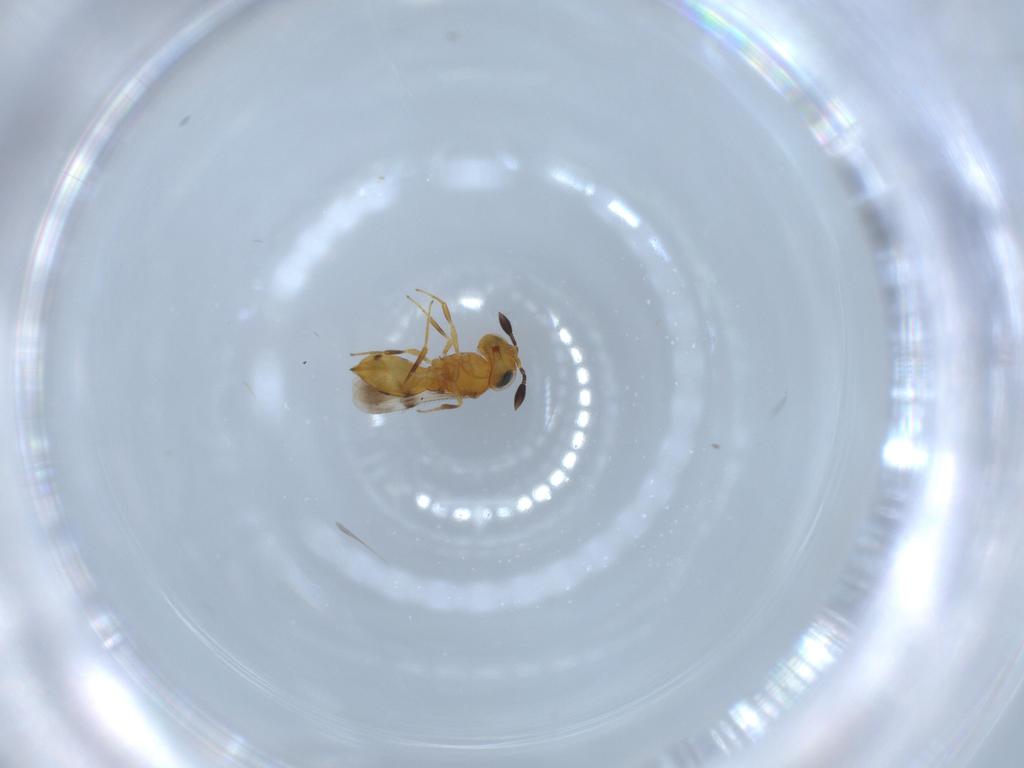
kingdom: Animalia
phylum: Arthropoda
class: Insecta
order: Hymenoptera
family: Scelionidae
